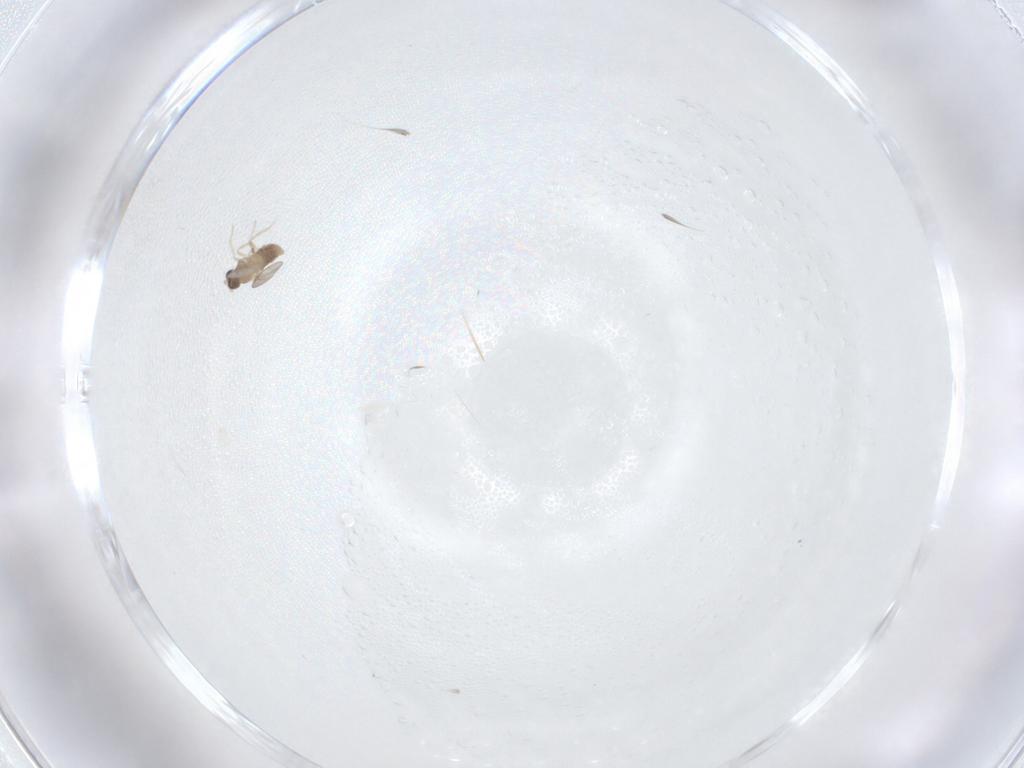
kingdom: Animalia
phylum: Arthropoda
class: Insecta
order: Diptera
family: Cecidomyiidae
